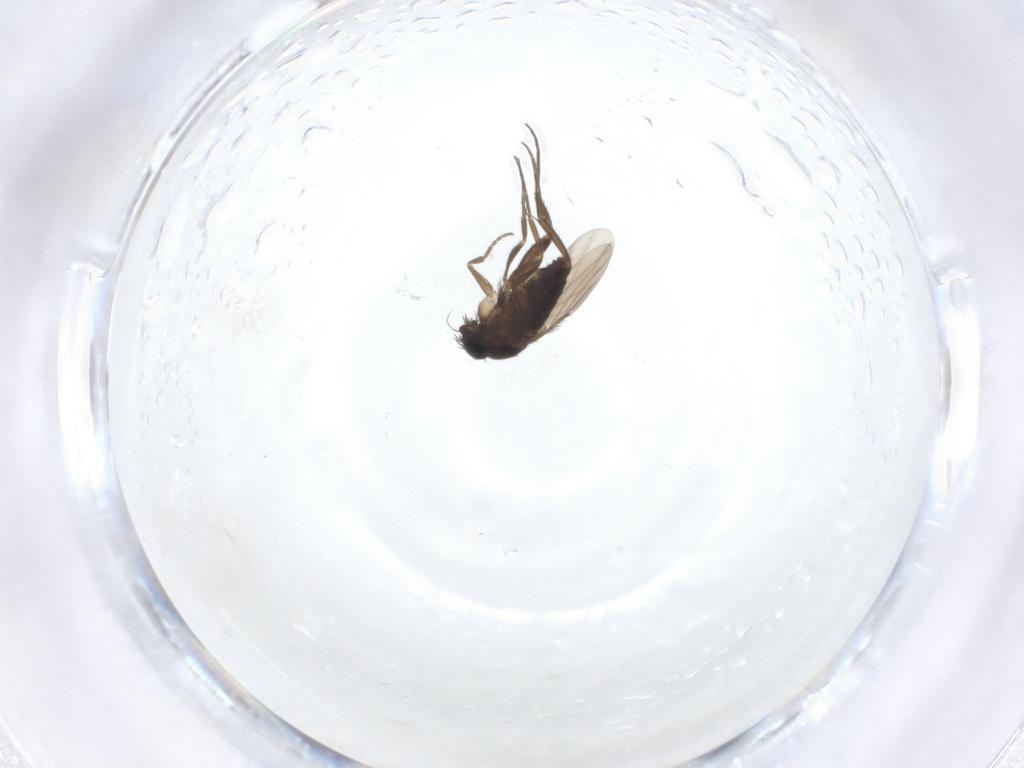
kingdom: Animalia
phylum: Arthropoda
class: Insecta
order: Diptera
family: Phoridae
